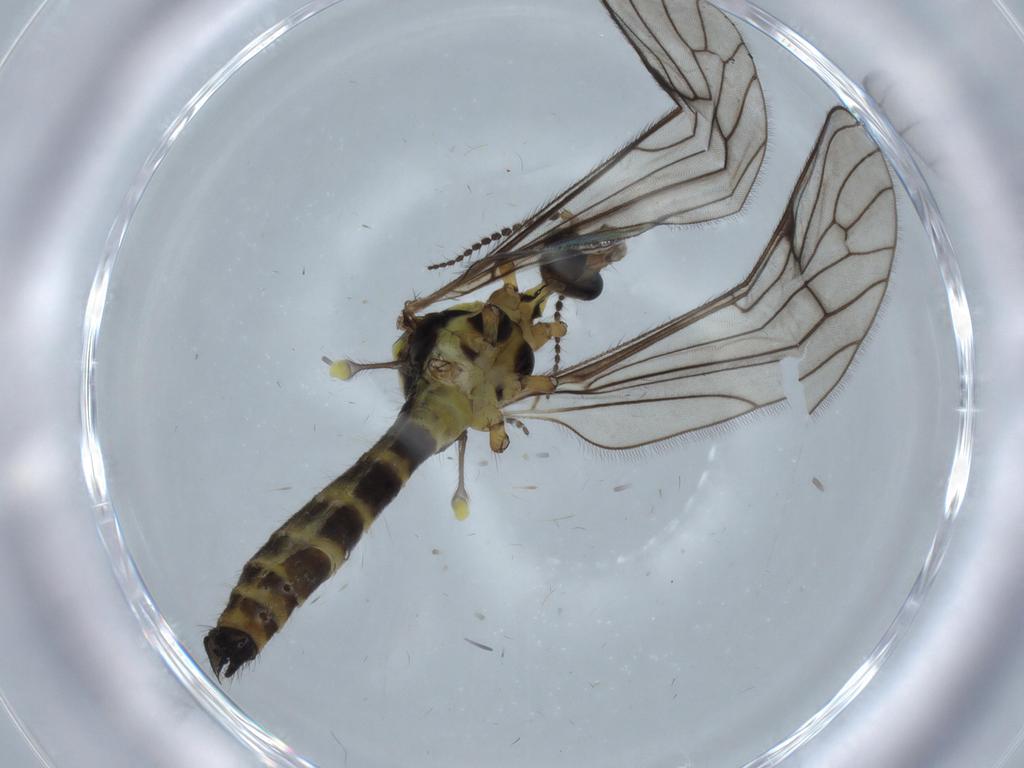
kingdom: Animalia
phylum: Arthropoda
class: Insecta
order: Diptera
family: Limoniidae
